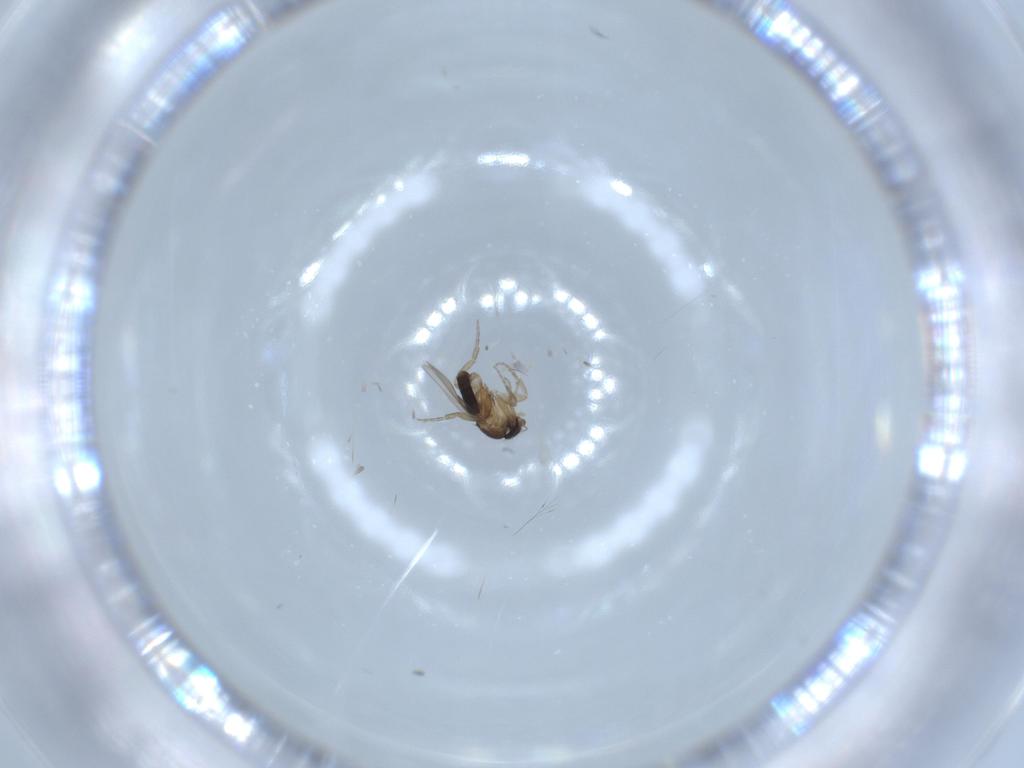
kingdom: Animalia
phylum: Arthropoda
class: Insecta
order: Diptera
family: Phoridae
